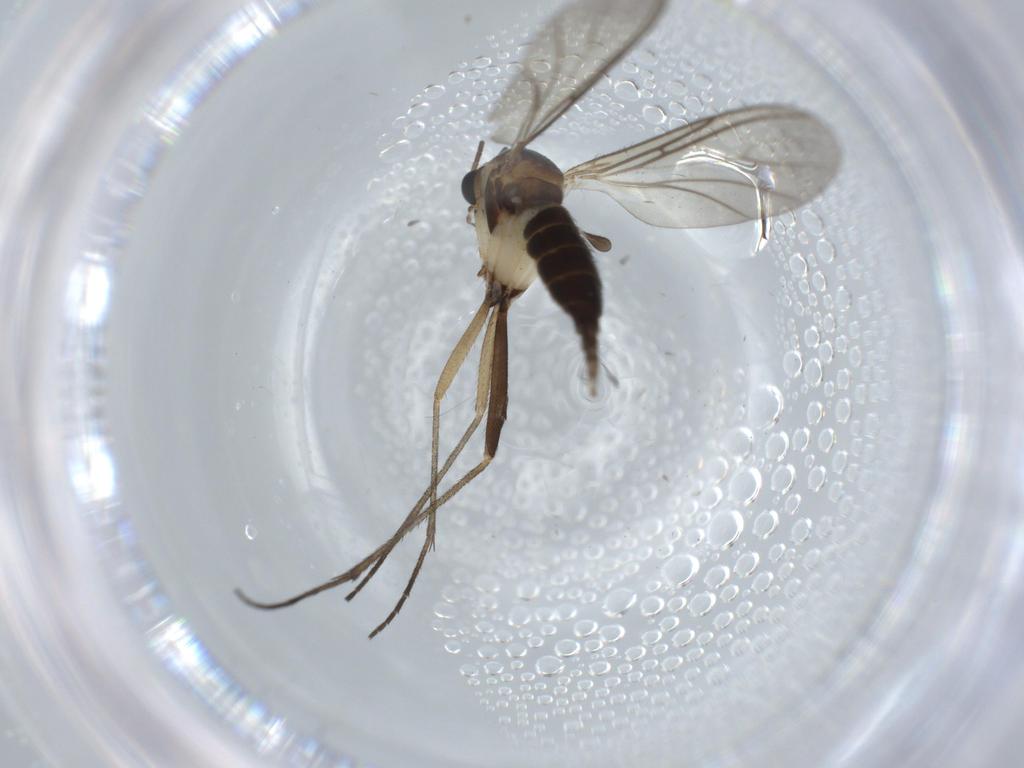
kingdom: Animalia
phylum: Arthropoda
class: Insecta
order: Diptera
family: Sciaridae
